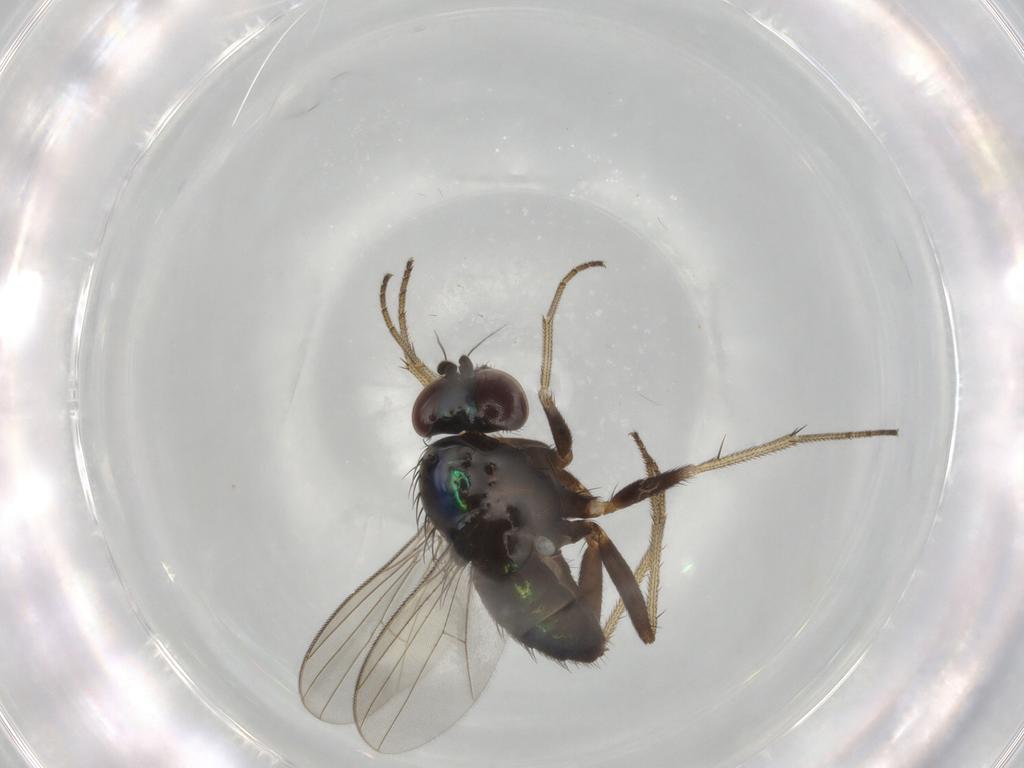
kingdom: Animalia
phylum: Arthropoda
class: Insecta
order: Diptera
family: Dolichopodidae
